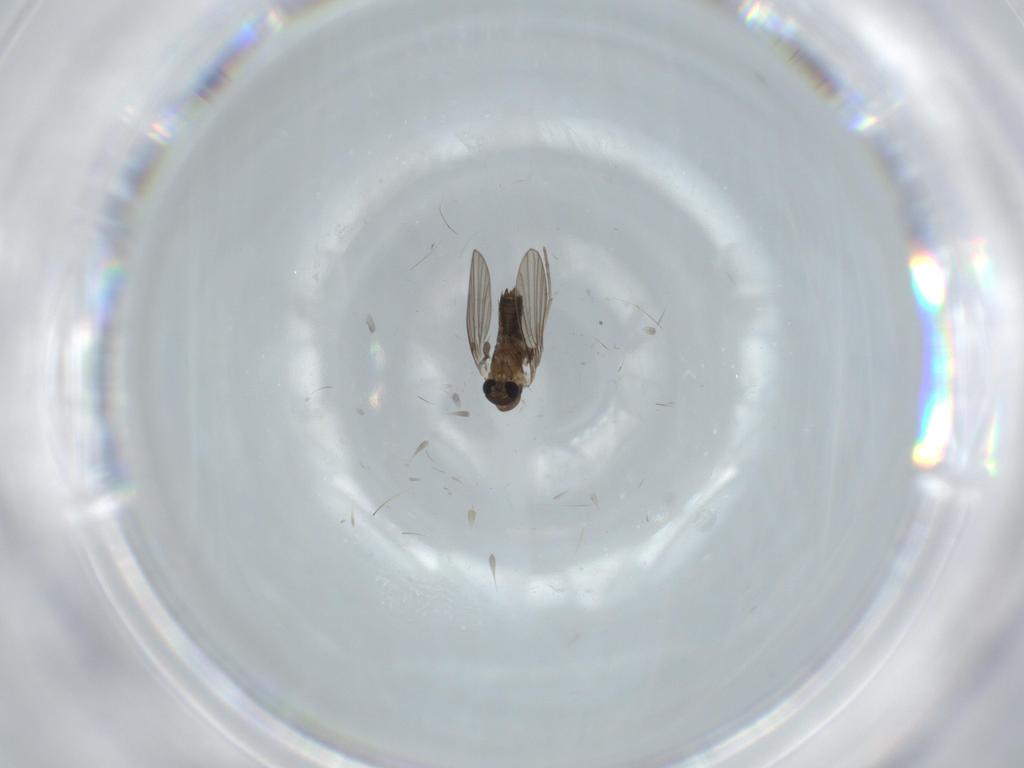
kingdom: Animalia
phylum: Arthropoda
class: Insecta
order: Diptera
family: Psychodidae
